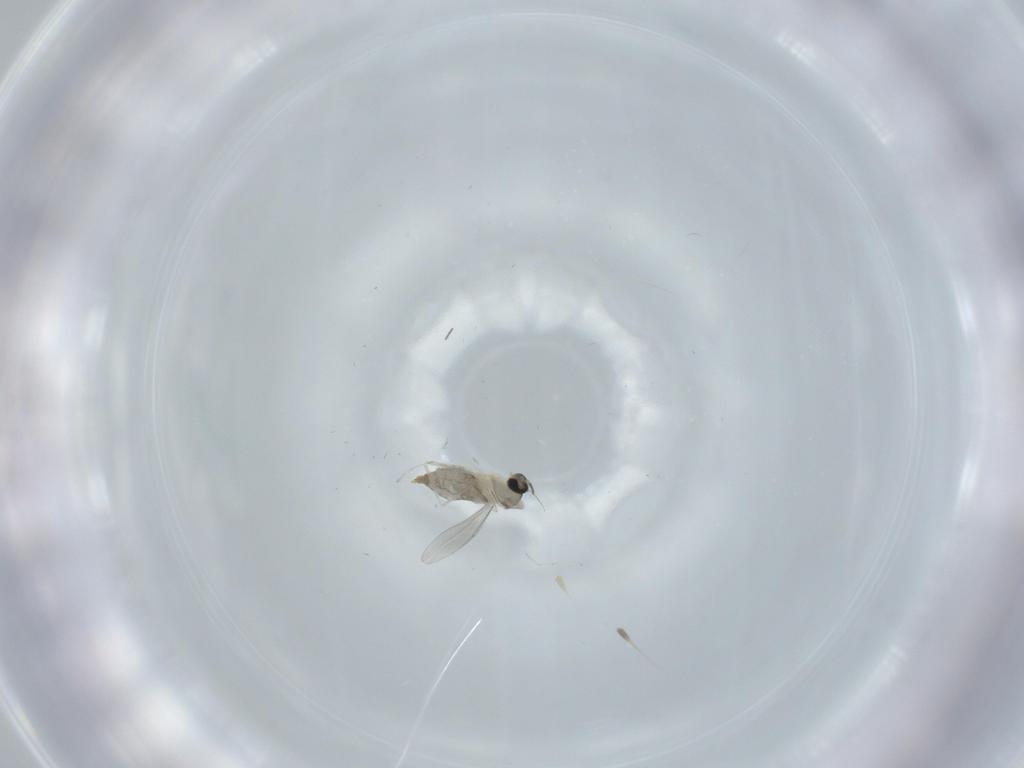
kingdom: Animalia
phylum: Arthropoda
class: Insecta
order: Diptera
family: Cecidomyiidae
